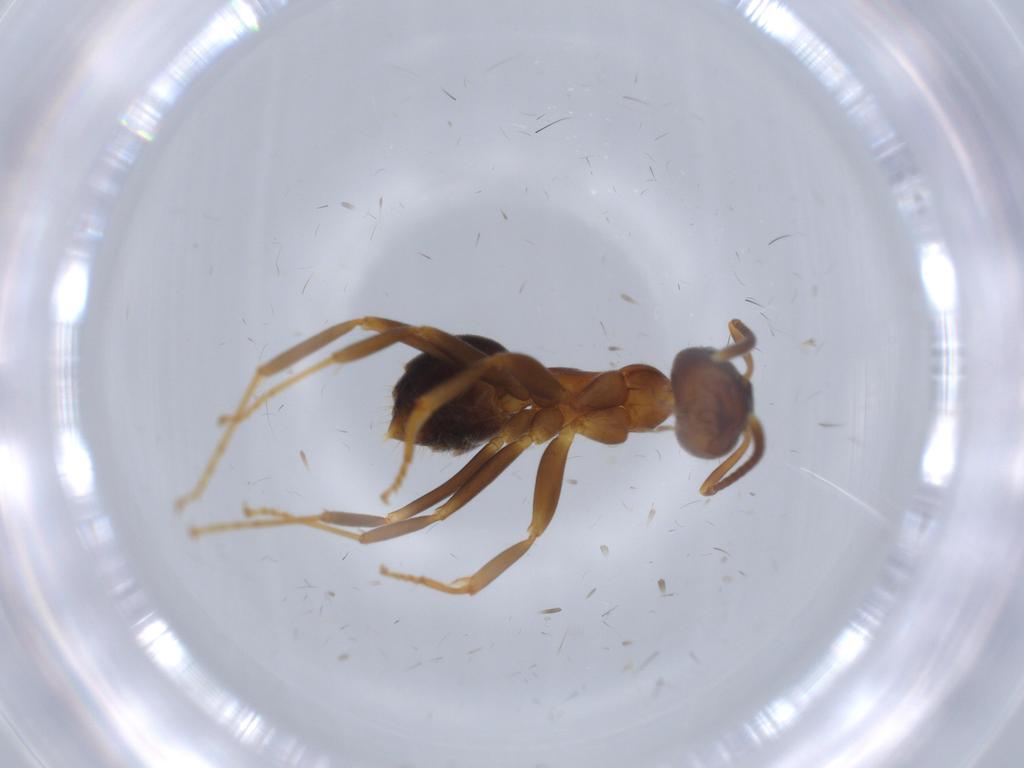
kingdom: Animalia
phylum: Arthropoda
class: Insecta
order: Hymenoptera
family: Formicidae
